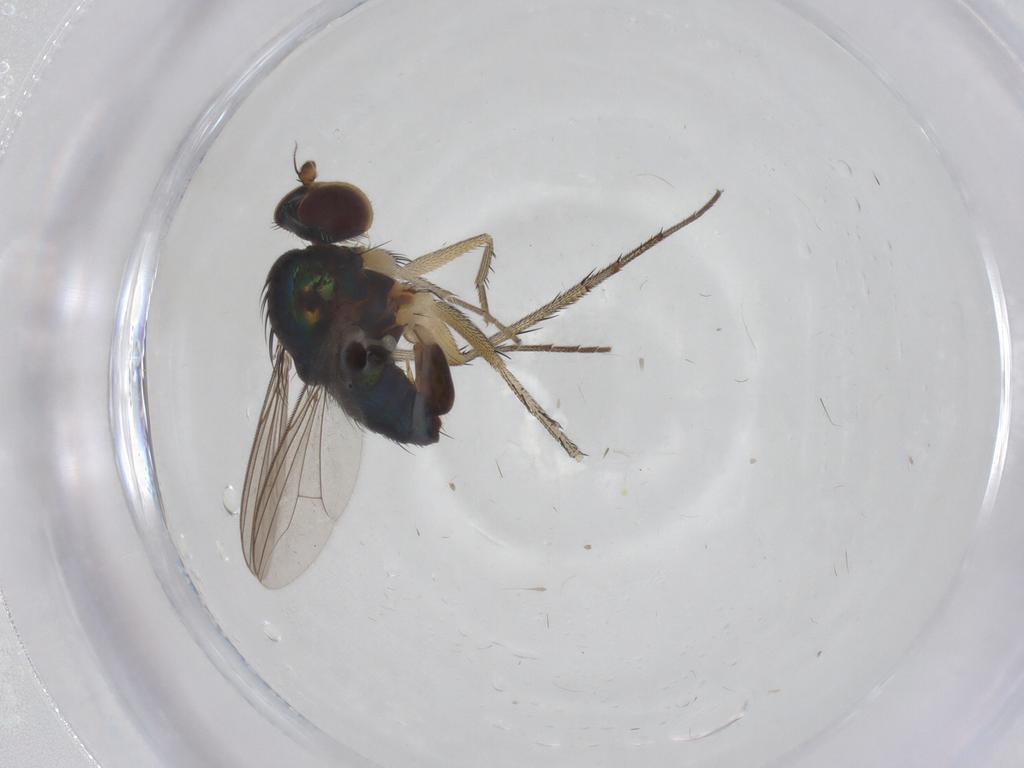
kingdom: Animalia
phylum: Arthropoda
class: Insecta
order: Diptera
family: Dolichopodidae
